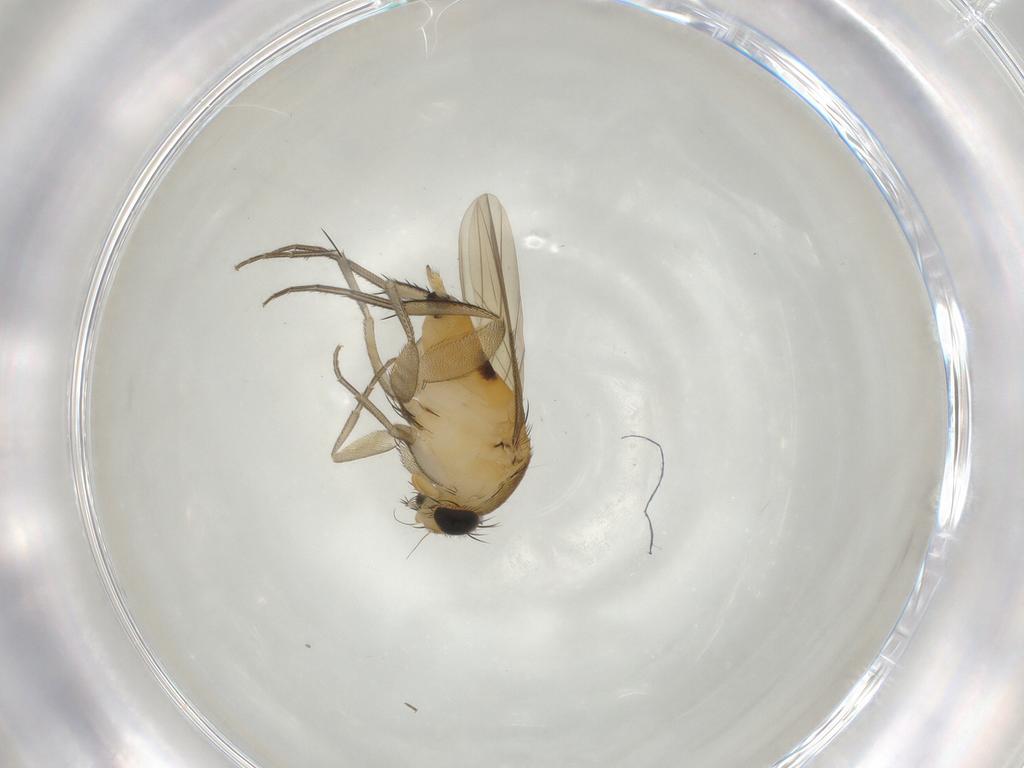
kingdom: Animalia
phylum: Arthropoda
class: Insecta
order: Diptera
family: Phoridae
